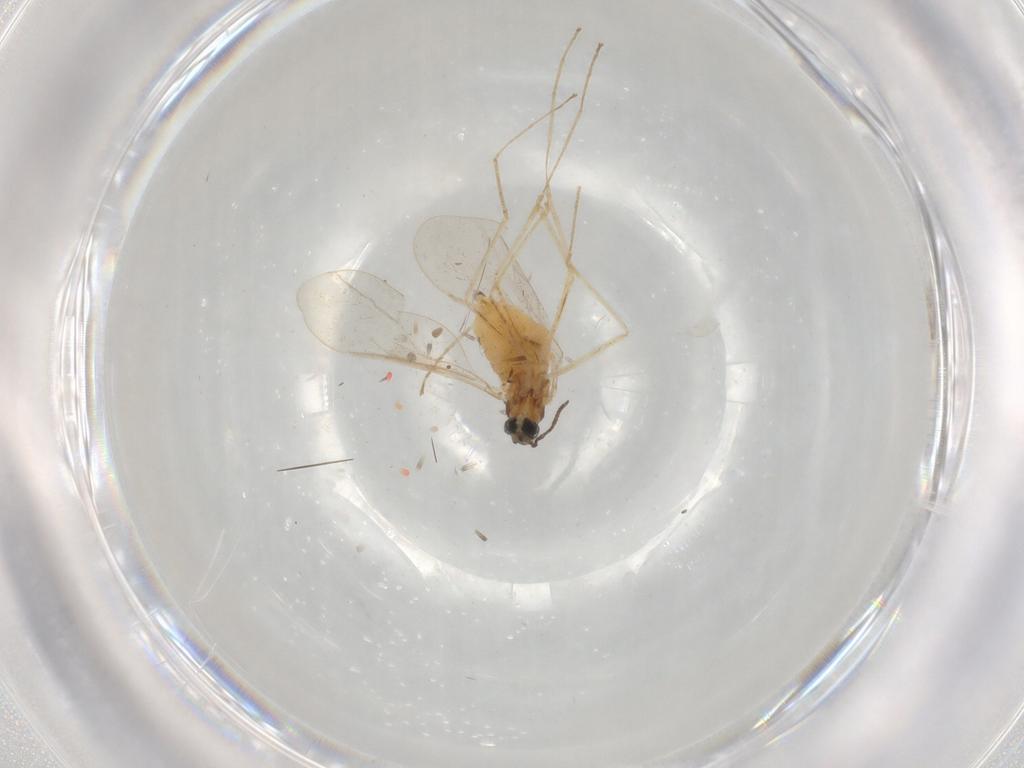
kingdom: Animalia
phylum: Arthropoda
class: Insecta
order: Diptera
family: Cecidomyiidae
